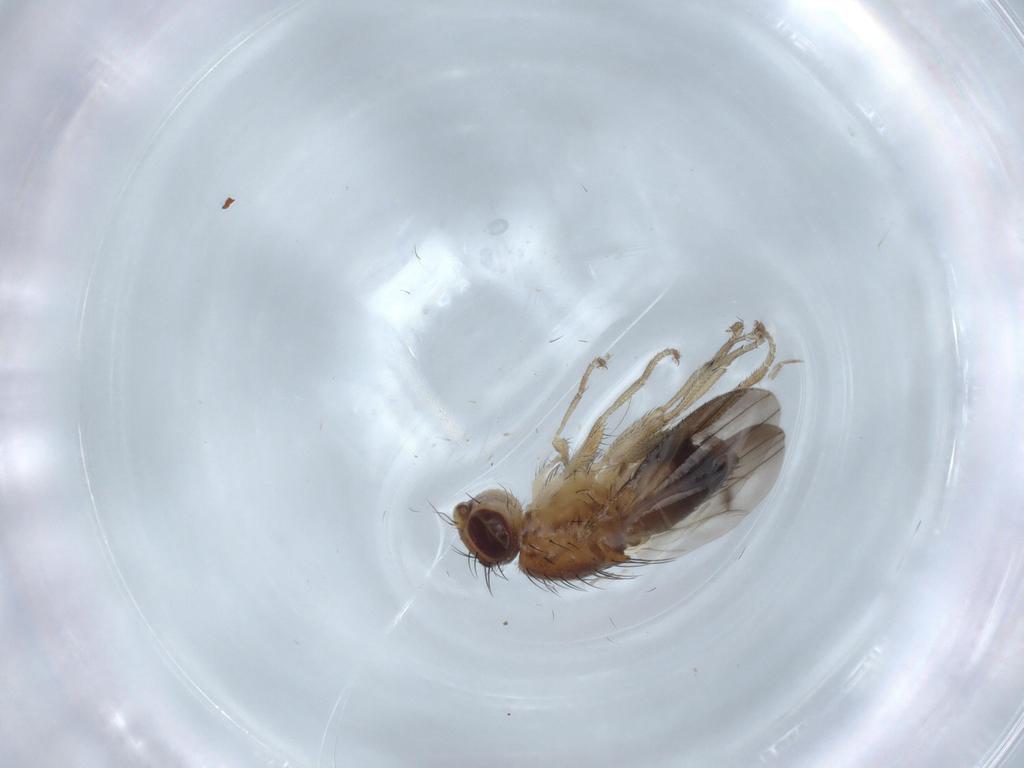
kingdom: Animalia
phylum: Arthropoda
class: Insecta
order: Diptera
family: Heleomyzidae
